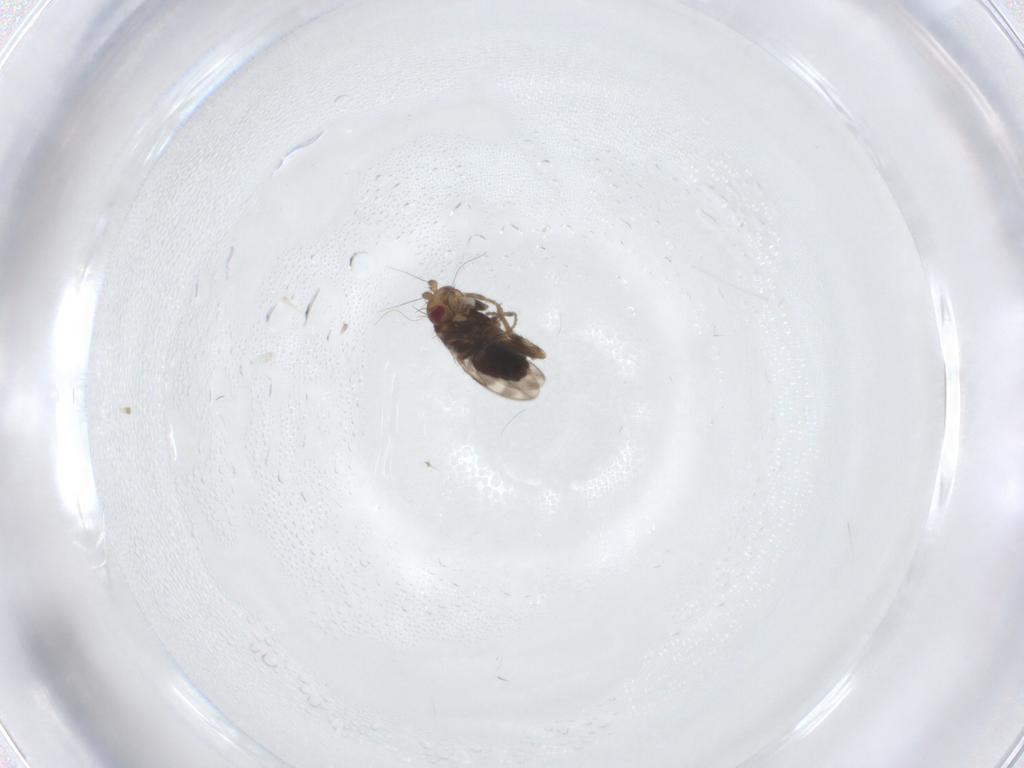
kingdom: Animalia
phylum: Arthropoda
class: Insecta
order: Diptera
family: Sphaeroceridae
